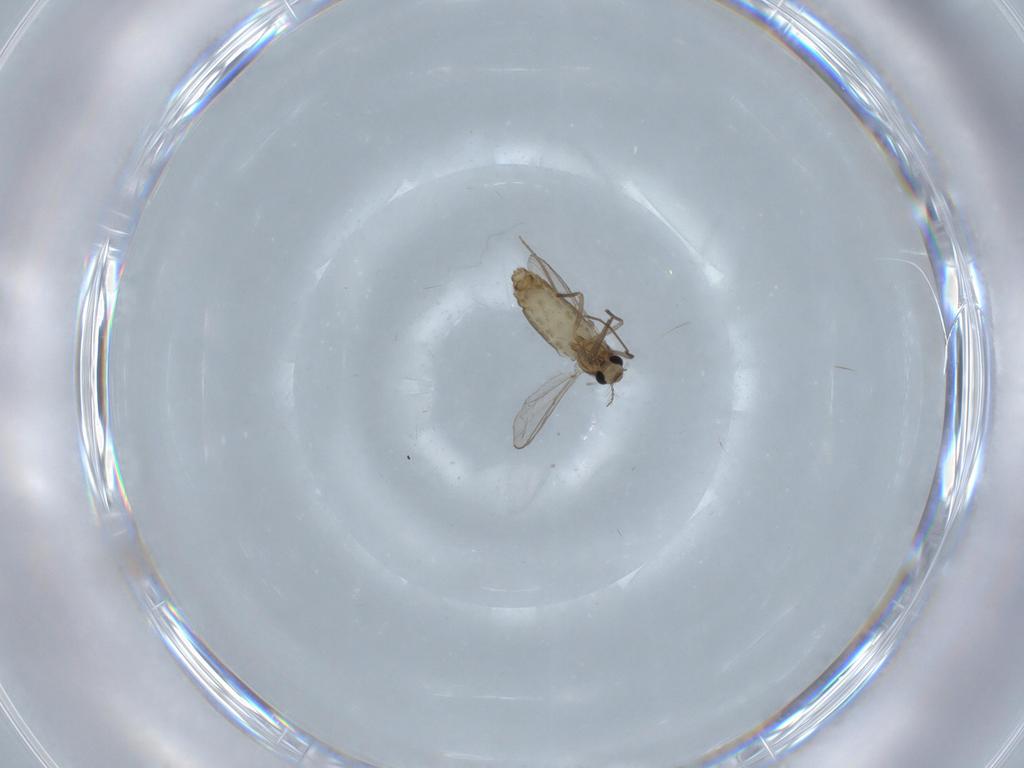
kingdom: Animalia
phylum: Arthropoda
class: Insecta
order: Diptera
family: Chironomidae
